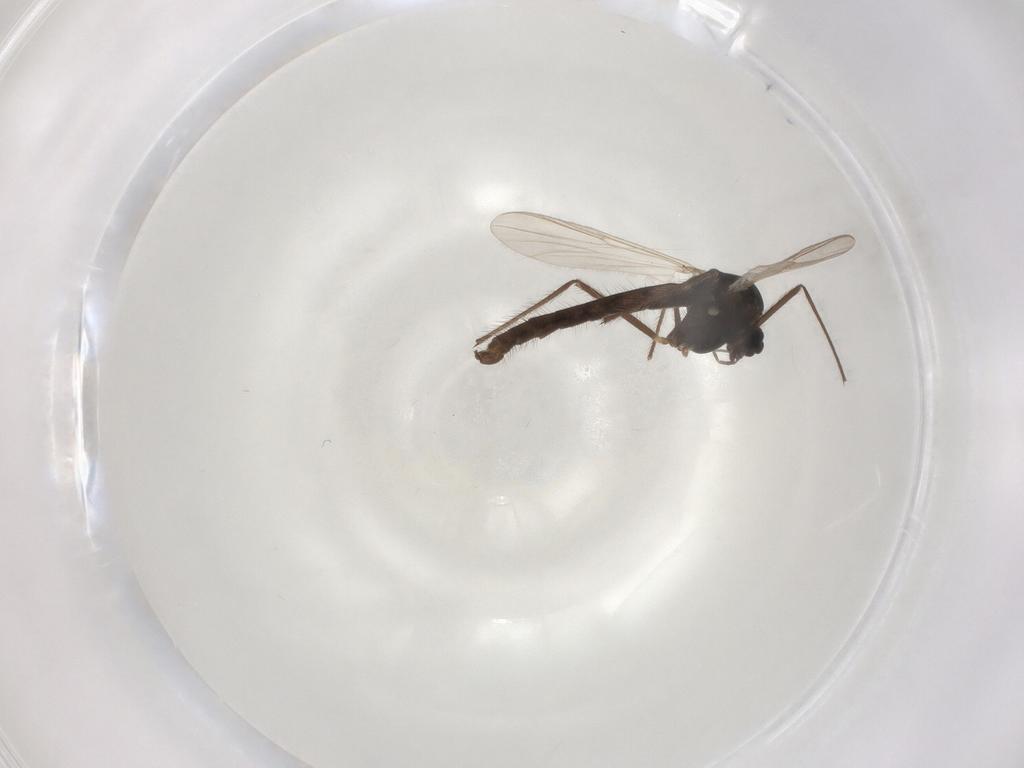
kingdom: Animalia
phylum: Arthropoda
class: Insecta
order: Diptera
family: Chironomidae
